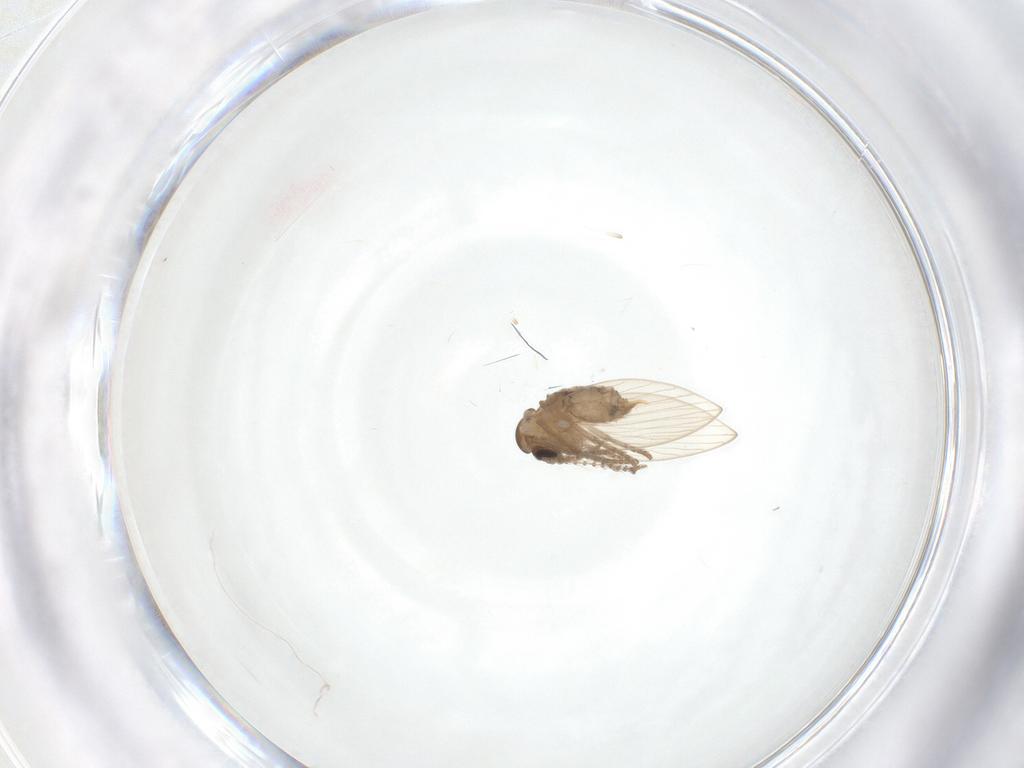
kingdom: Animalia
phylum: Arthropoda
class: Insecta
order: Diptera
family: Psychodidae
